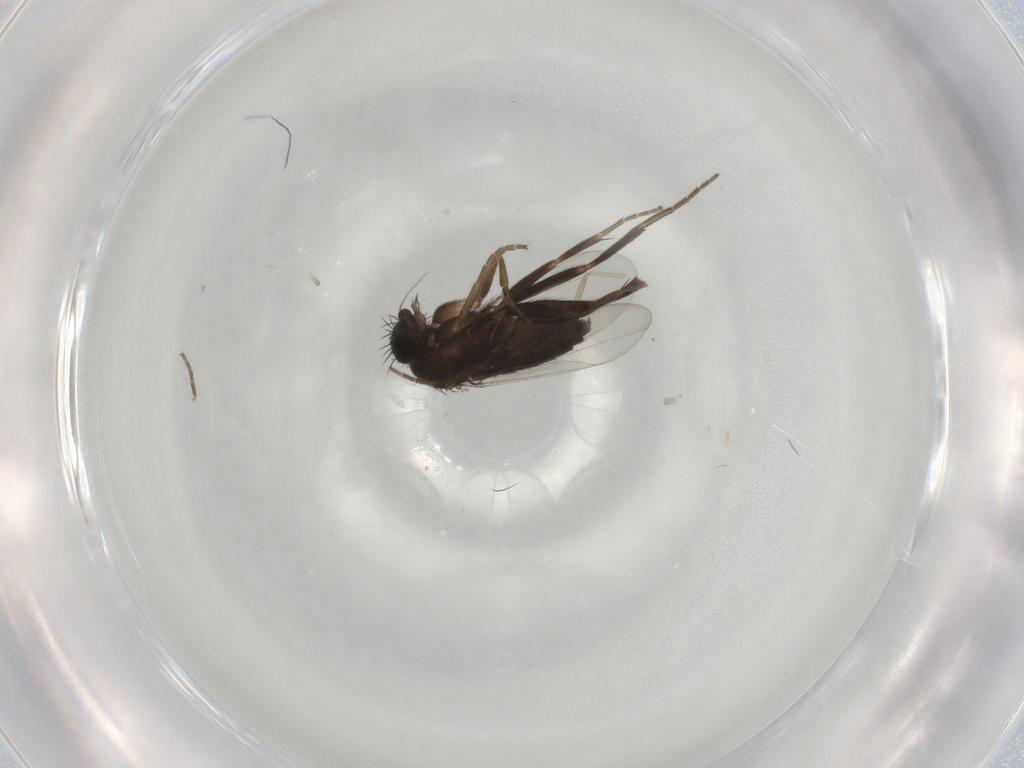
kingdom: Animalia
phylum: Arthropoda
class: Insecta
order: Diptera
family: Phoridae
